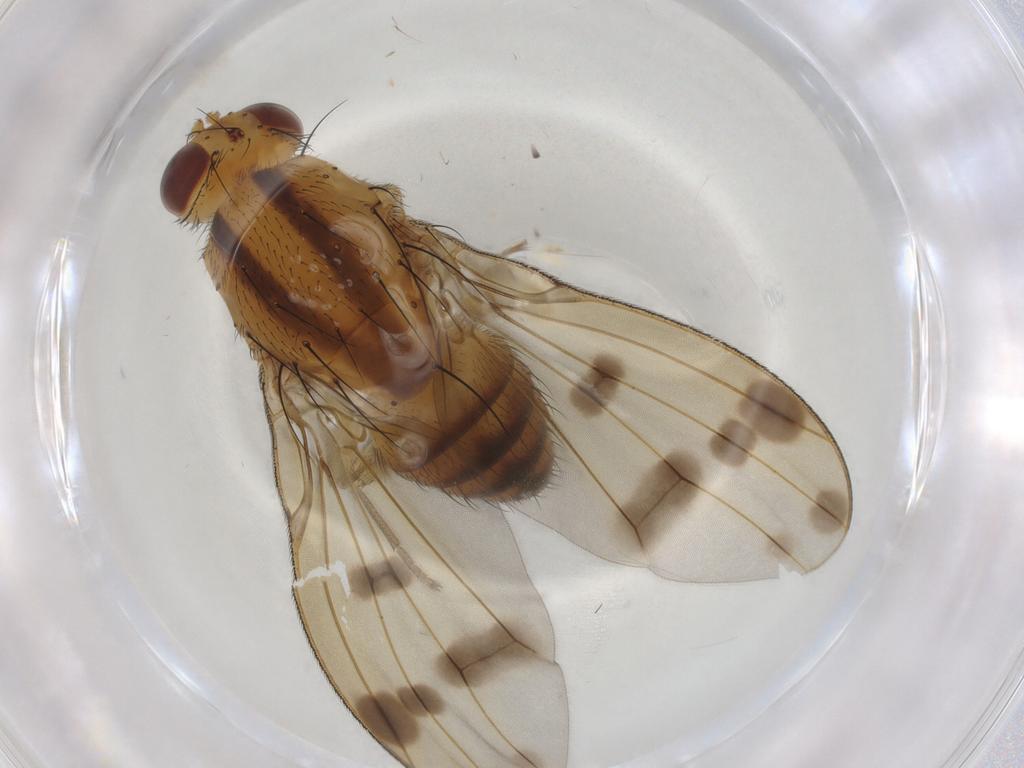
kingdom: Animalia
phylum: Arthropoda
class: Insecta
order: Diptera
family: Lauxaniidae
